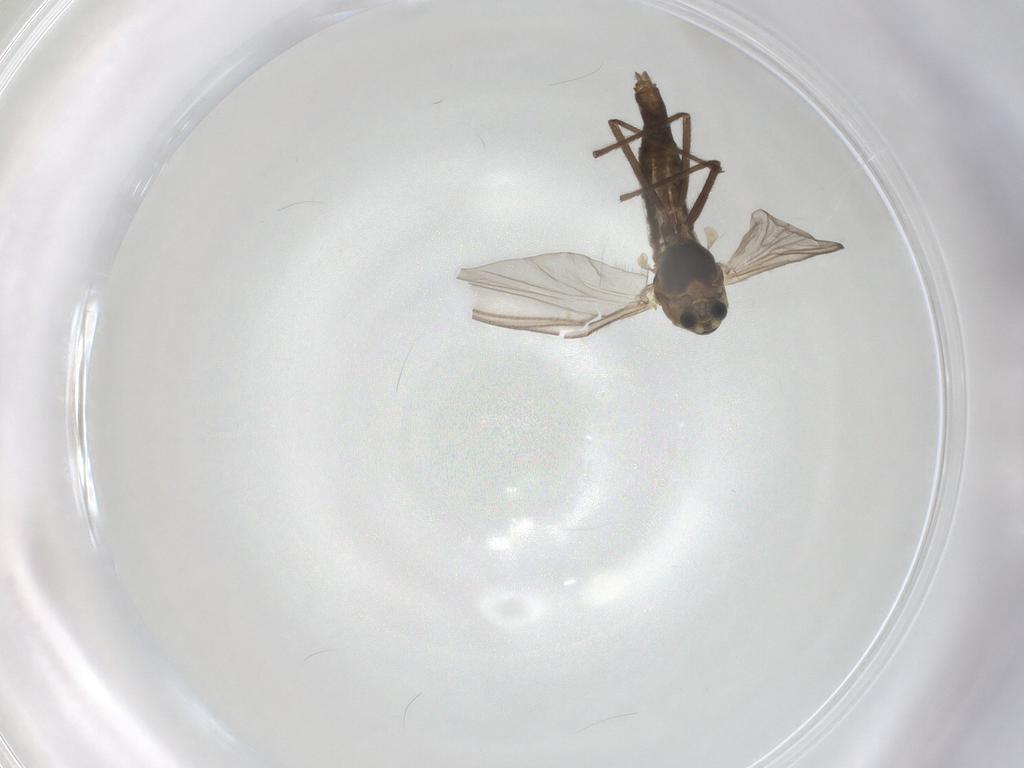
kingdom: Animalia
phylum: Arthropoda
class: Insecta
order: Diptera
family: Chironomidae
